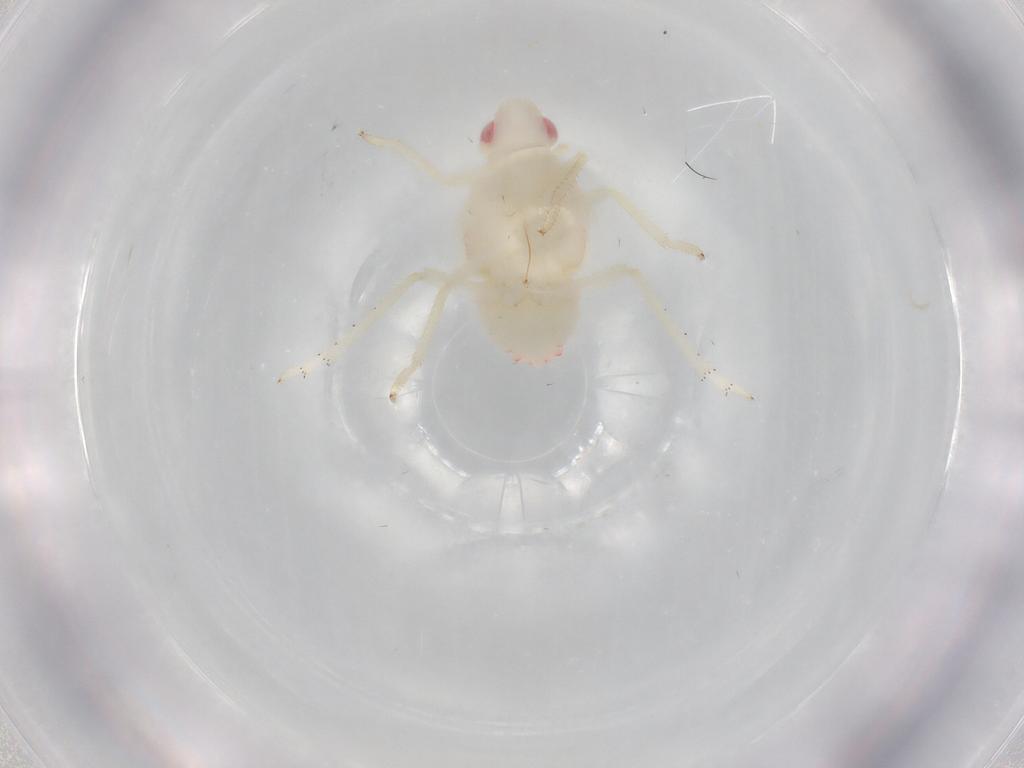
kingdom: Animalia
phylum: Arthropoda
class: Insecta
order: Hemiptera
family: Tropiduchidae
